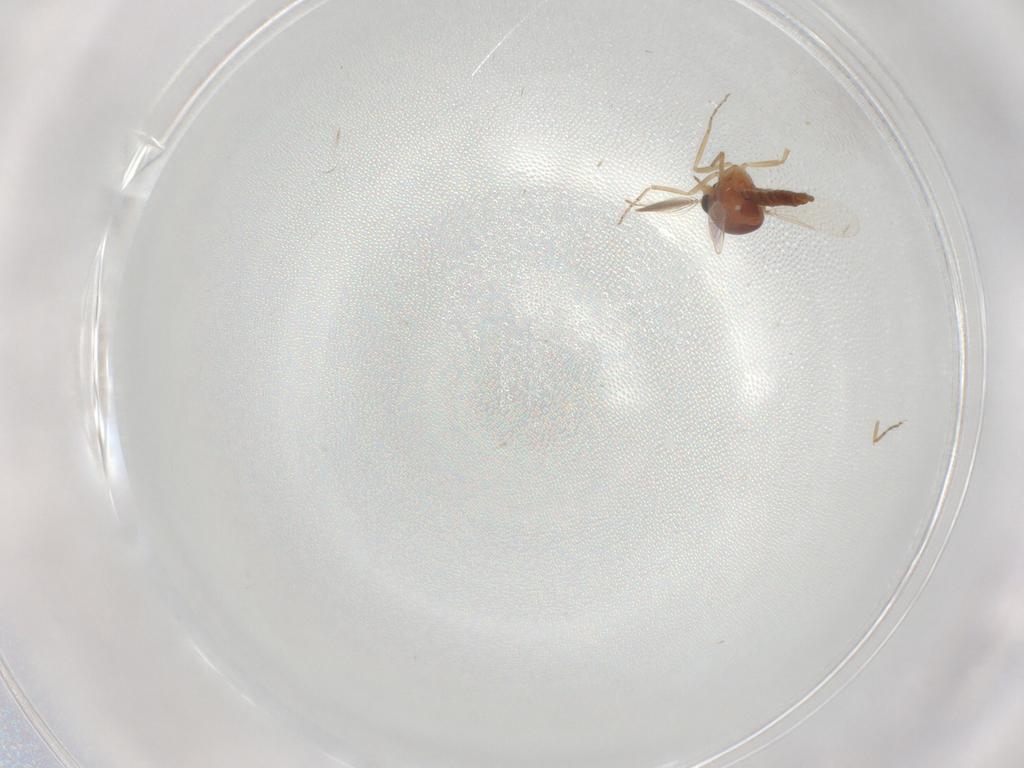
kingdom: Animalia
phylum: Arthropoda
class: Insecta
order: Diptera
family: Ceratopogonidae
